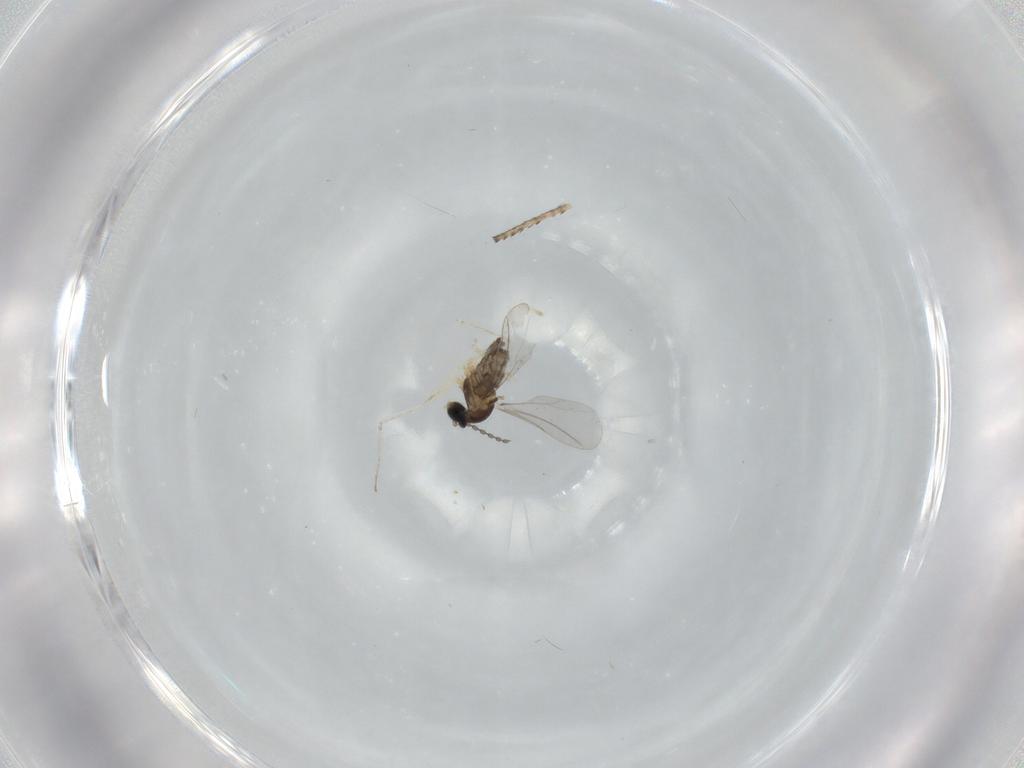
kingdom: Animalia
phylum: Arthropoda
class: Insecta
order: Diptera
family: Cecidomyiidae
